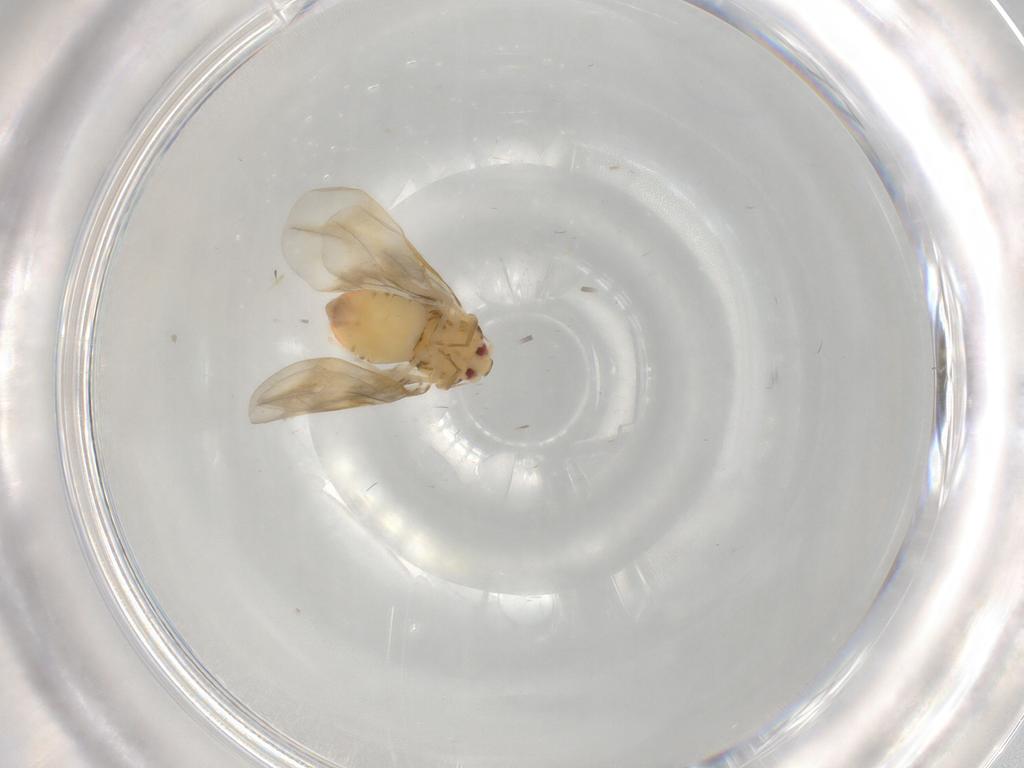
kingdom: Animalia
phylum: Arthropoda
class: Insecta
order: Hemiptera
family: Aleyrodidae
